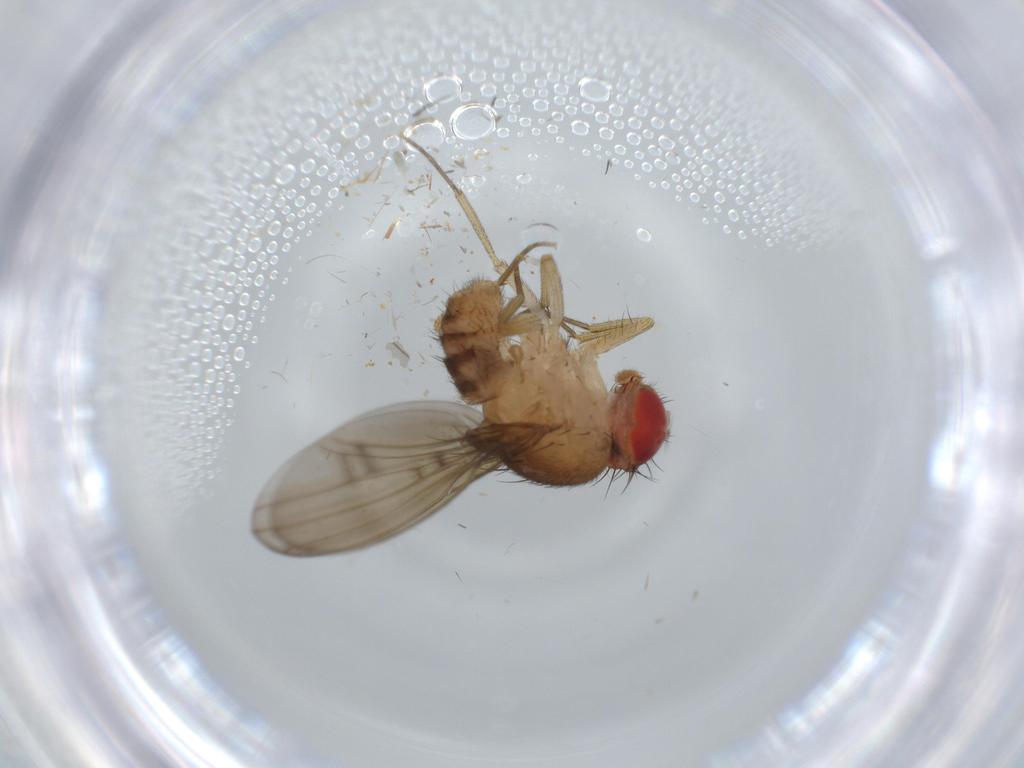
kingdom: Animalia
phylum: Arthropoda
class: Insecta
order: Diptera
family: Drosophilidae
